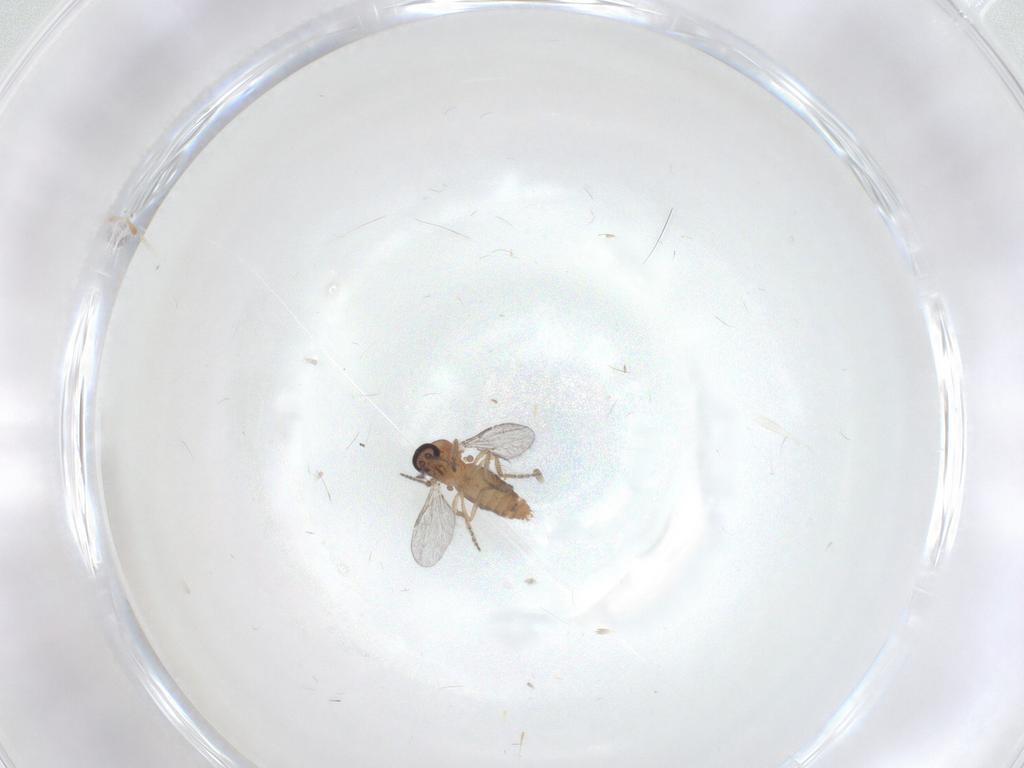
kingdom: Animalia
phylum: Arthropoda
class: Insecta
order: Diptera
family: Ceratopogonidae
